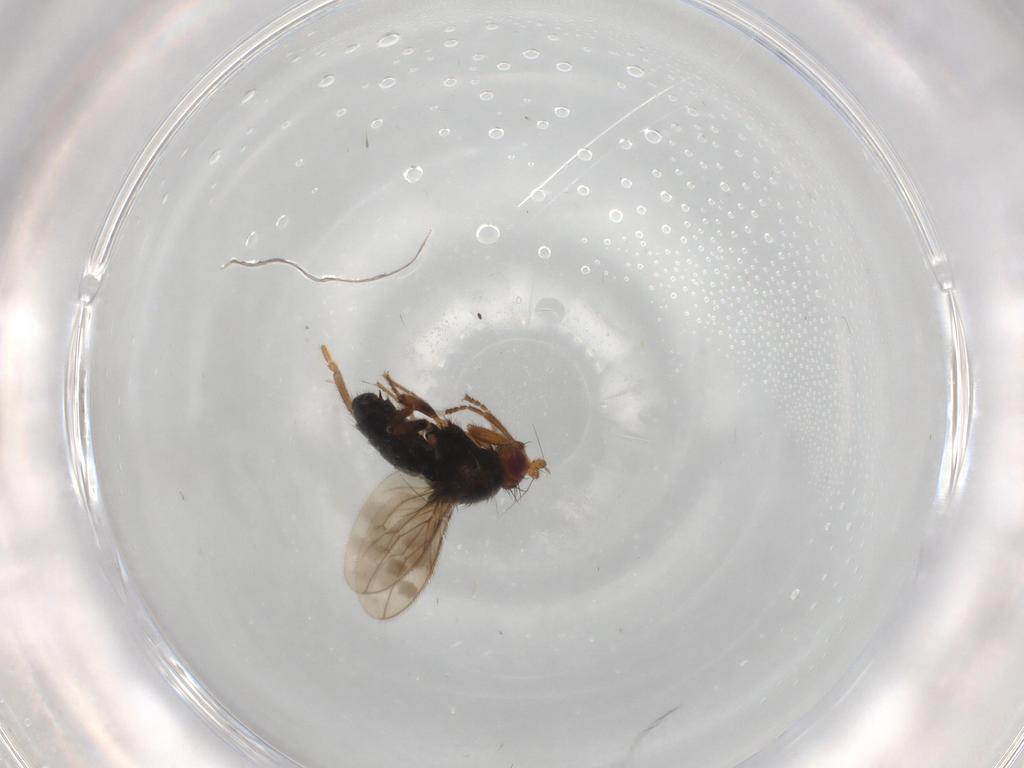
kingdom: Animalia
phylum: Arthropoda
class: Insecta
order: Diptera
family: Sphaeroceridae
